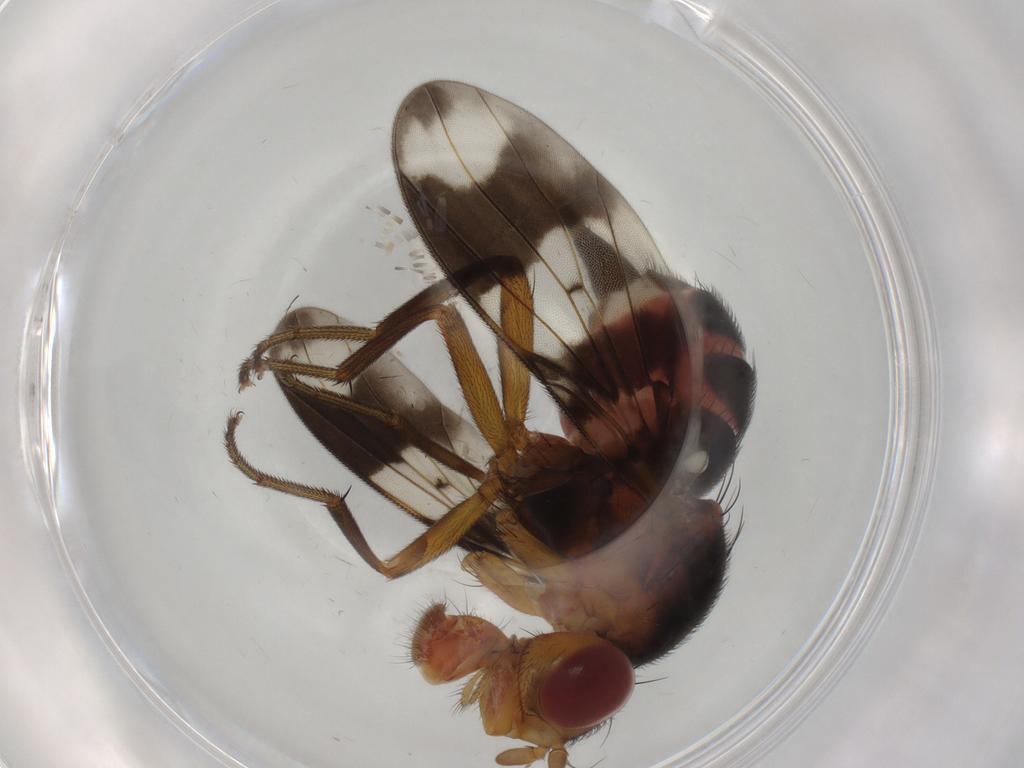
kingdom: Animalia
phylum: Arthropoda
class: Insecta
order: Diptera
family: Richardiidae
